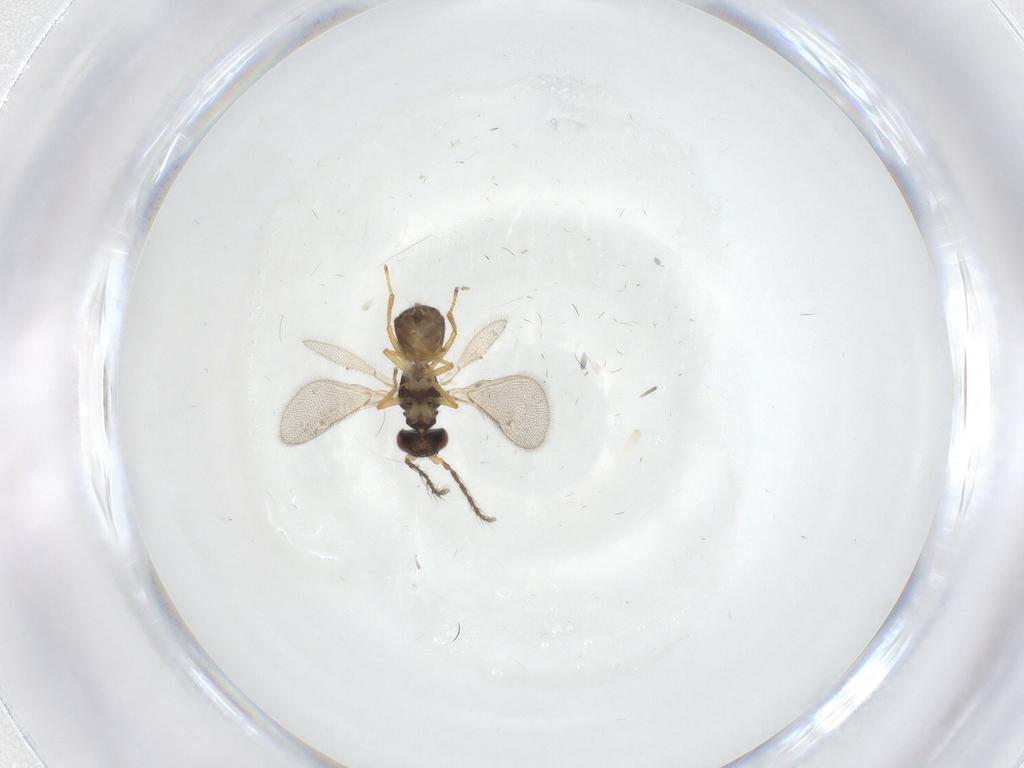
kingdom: Animalia
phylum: Arthropoda
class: Insecta
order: Hymenoptera
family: Eulophidae
